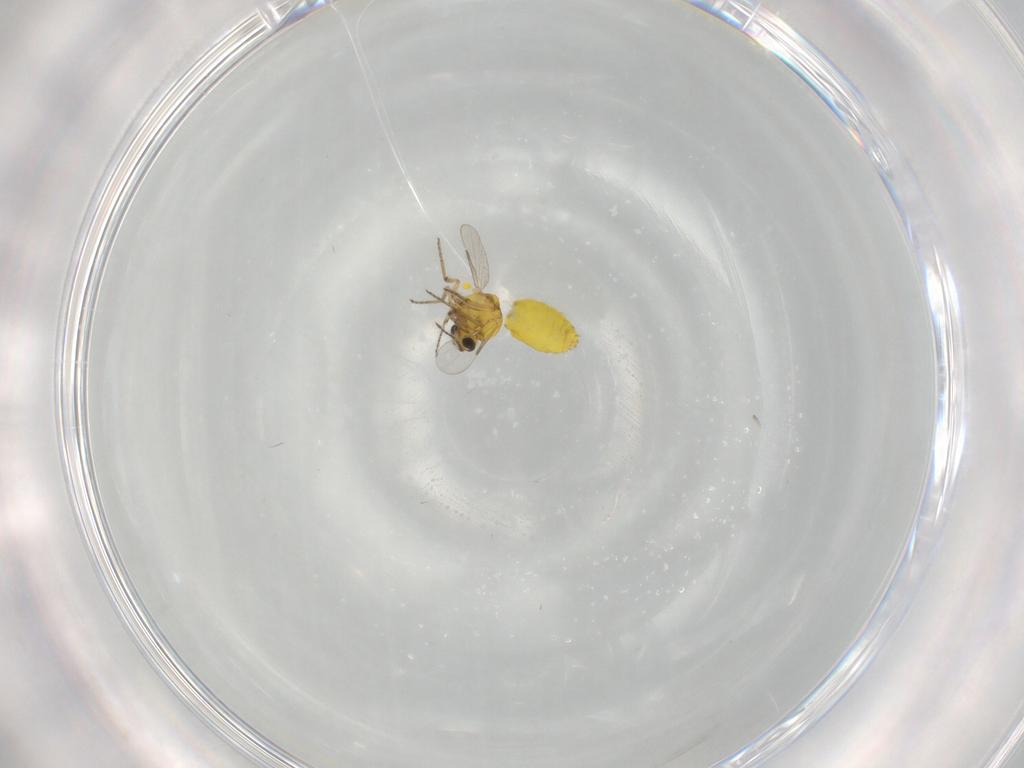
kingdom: Animalia
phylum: Arthropoda
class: Insecta
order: Diptera
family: Ceratopogonidae
